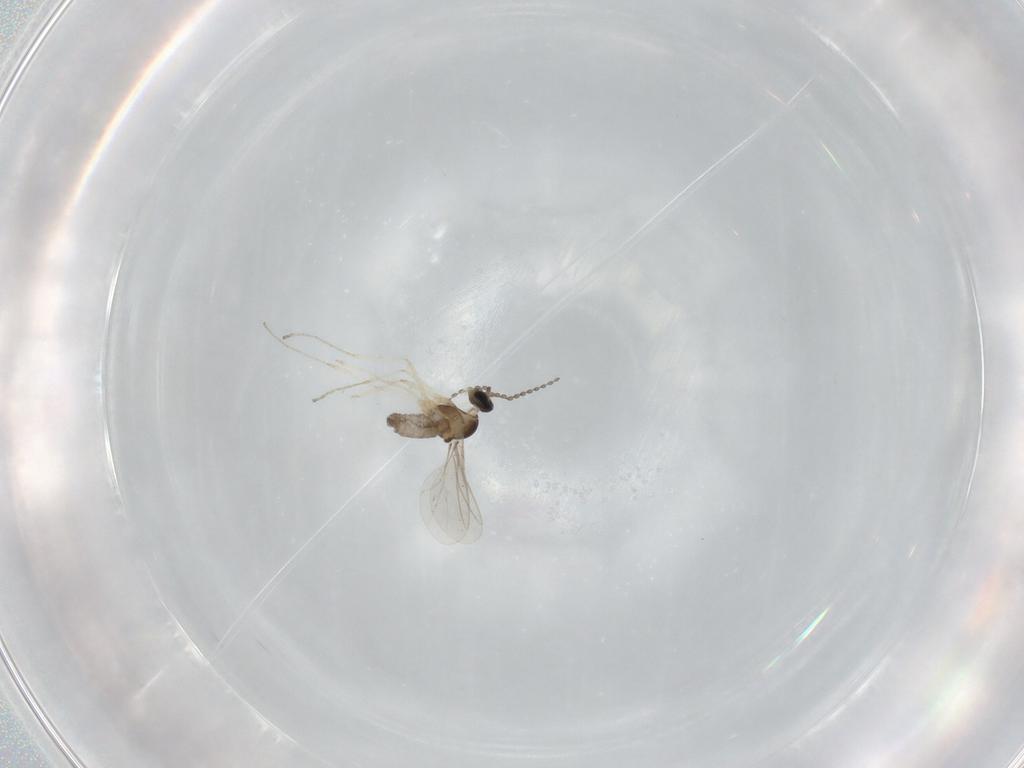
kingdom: Animalia
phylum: Arthropoda
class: Insecta
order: Diptera
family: Cecidomyiidae
